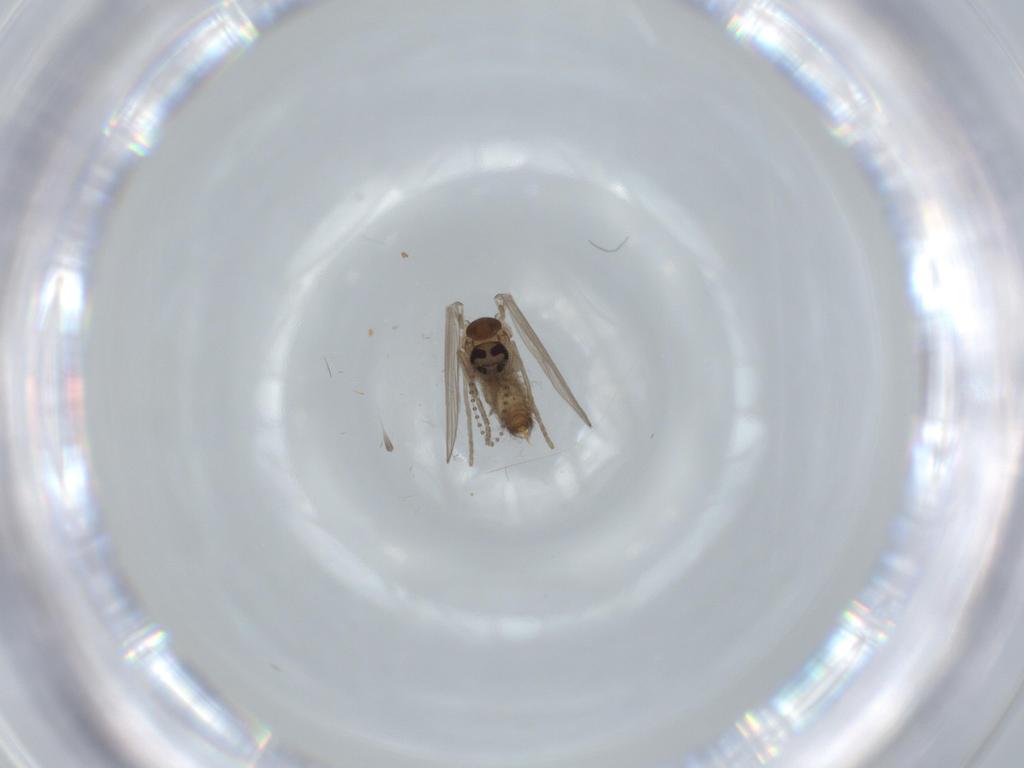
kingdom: Animalia
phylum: Arthropoda
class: Insecta
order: Diptera
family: Psychodidae
